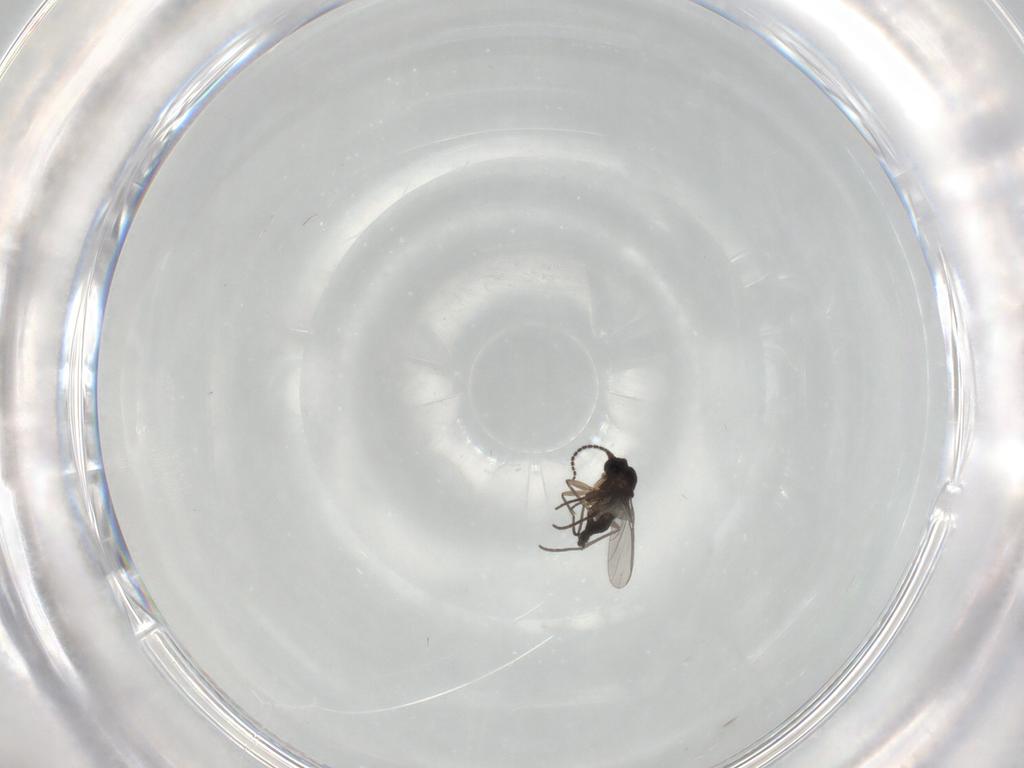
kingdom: Animalia
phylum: Arthropoda
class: Insecta
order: Diptera
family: Sciaridae
